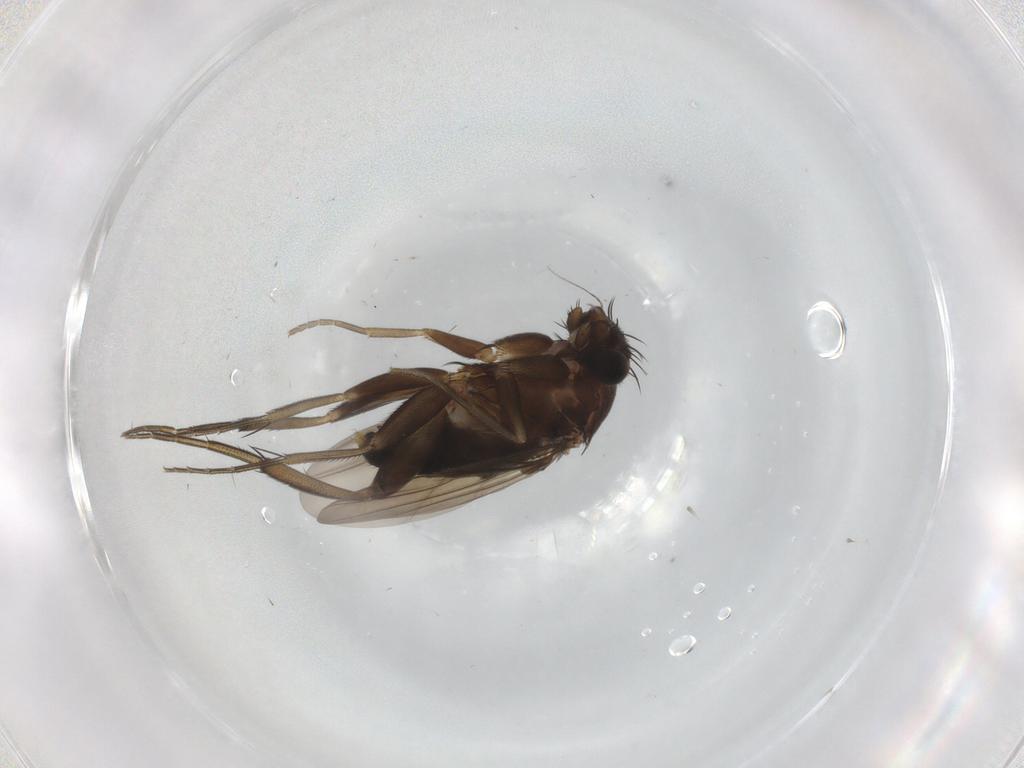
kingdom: Animalia
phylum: Arthropoda
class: Insecta
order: Diptera
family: Phoridae
